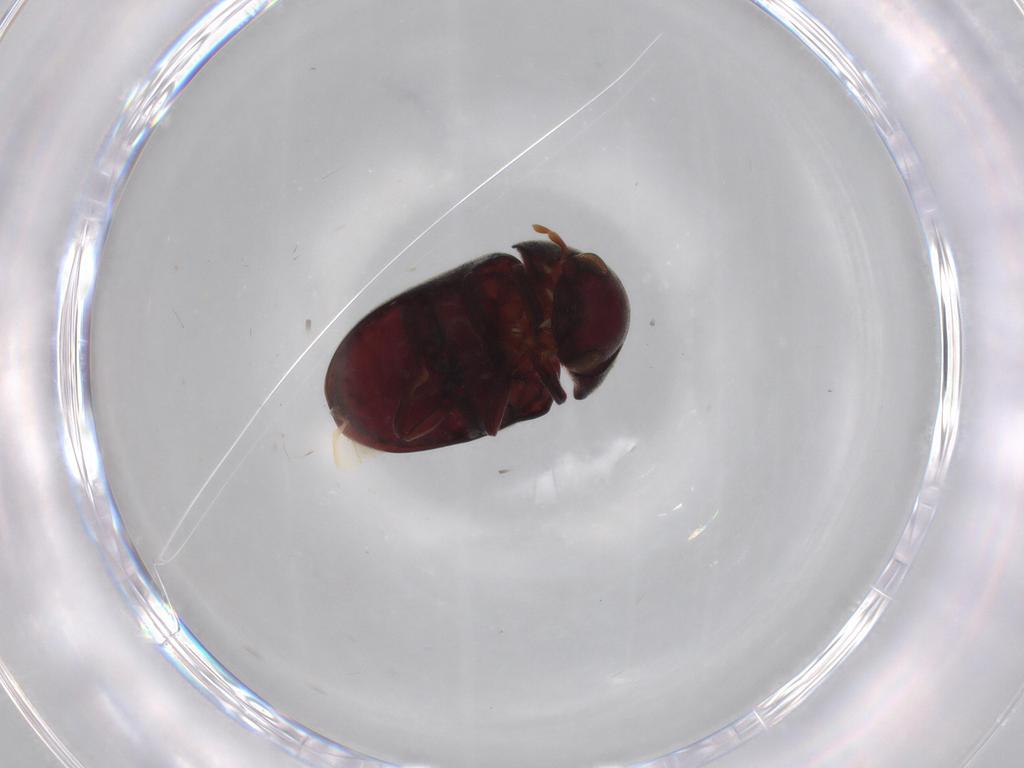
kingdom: Animalia
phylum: Arthropoda
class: Insecta
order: Coleoptera
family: Ptinidae
